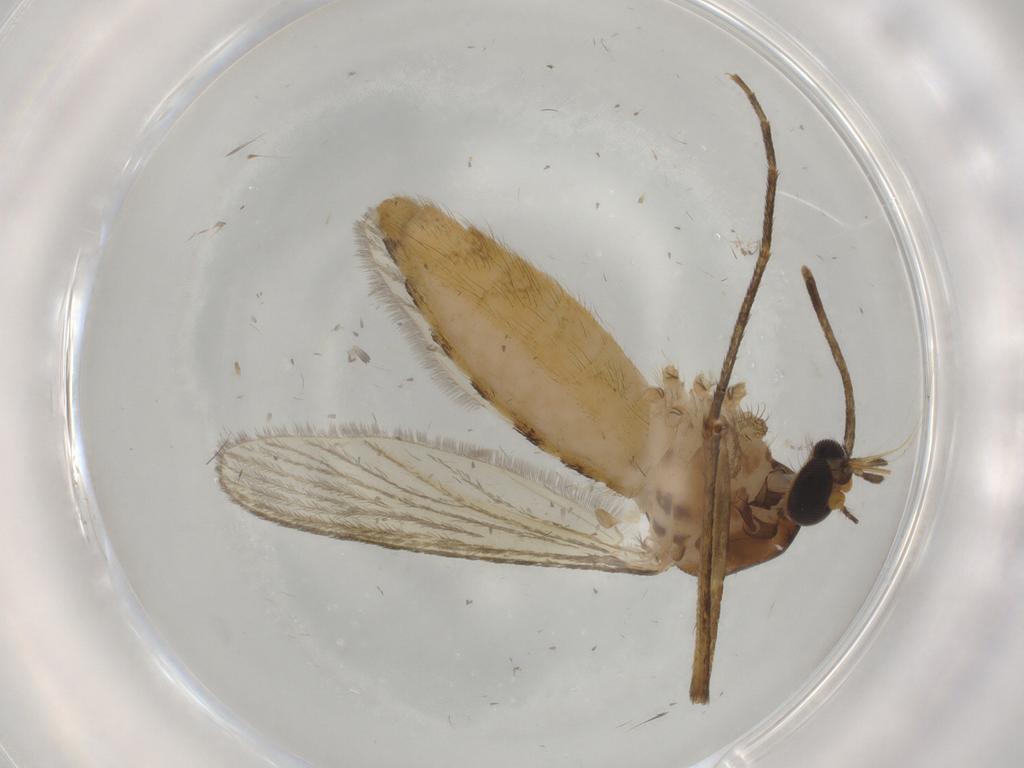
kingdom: Animalia
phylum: Arthropoda
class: Insecta
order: Diptera
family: Culicidae
